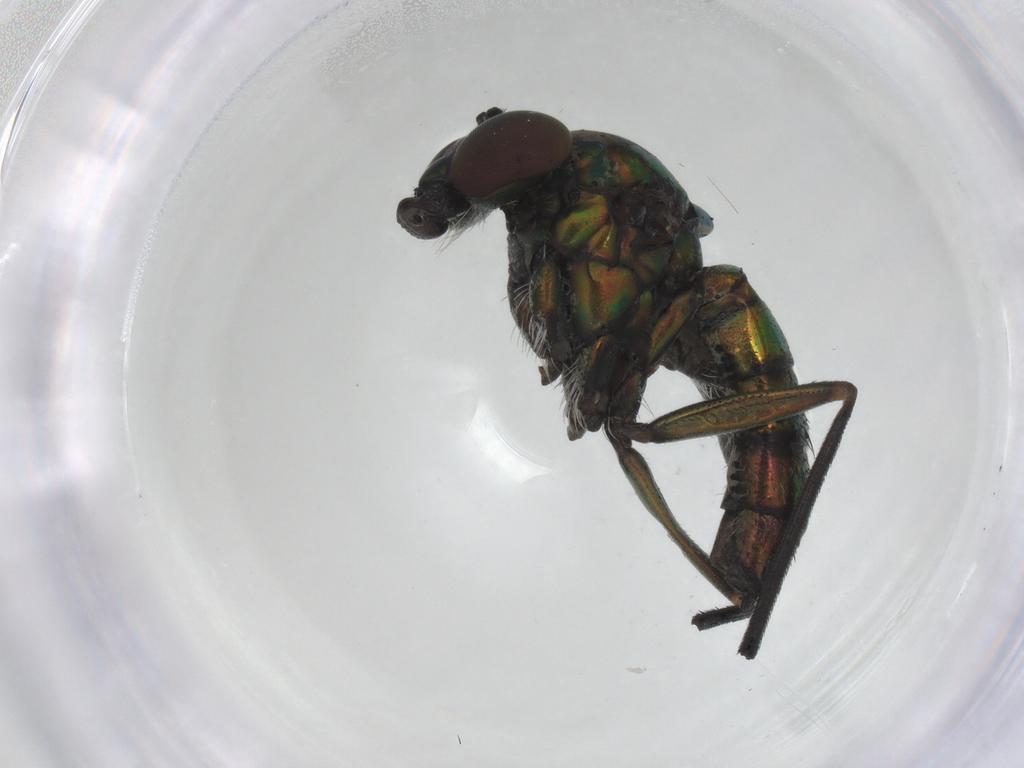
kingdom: Animalia
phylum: Arthropoda
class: Insecta
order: Diptera
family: Dolichopodidae
